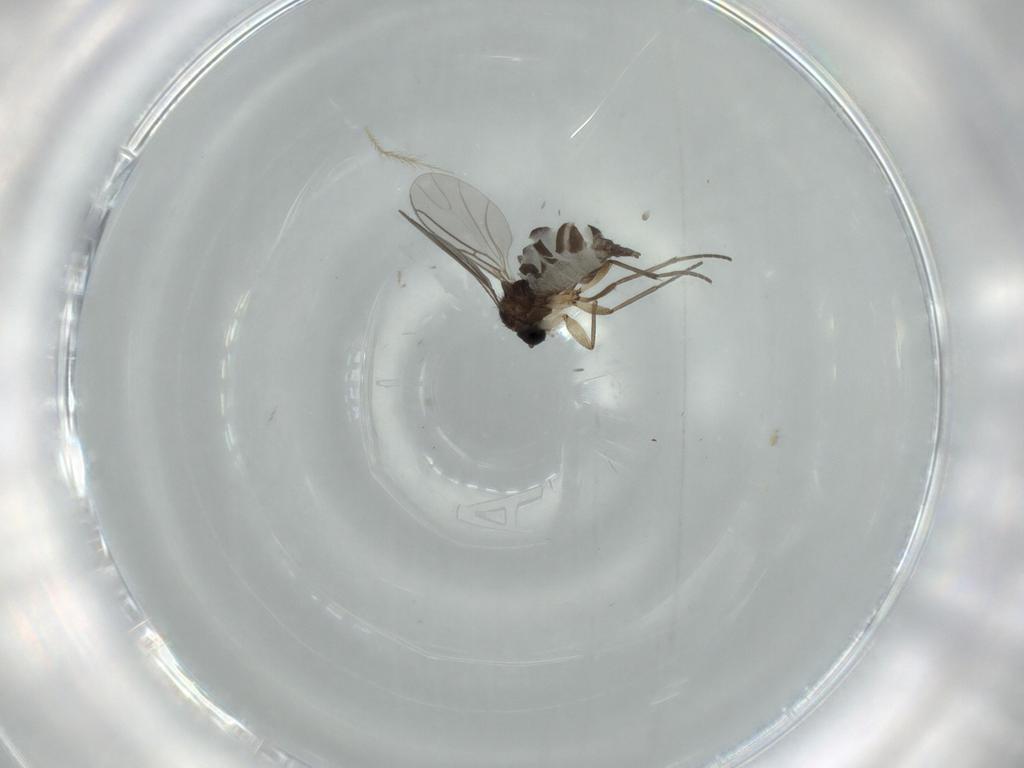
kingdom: Animalia
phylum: Arthropoda
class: Insecta
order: Diptera
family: Sciaridae
